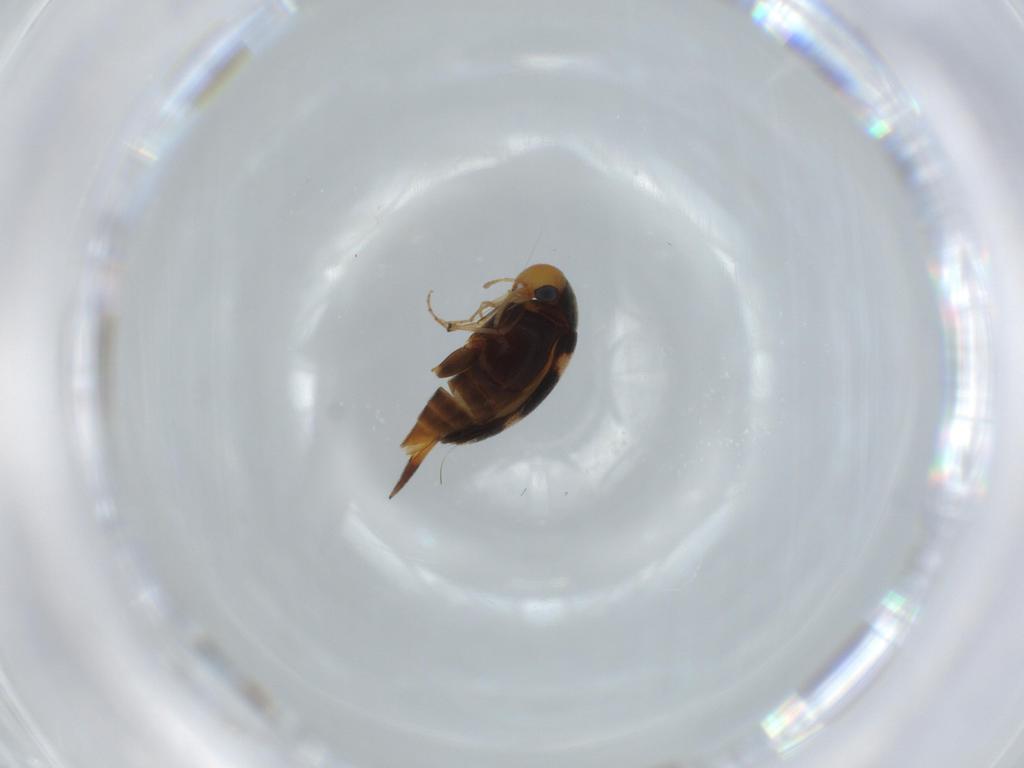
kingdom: Animalia
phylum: Arthropoda
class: Insecta
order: Coleoptera
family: Mordellidae
